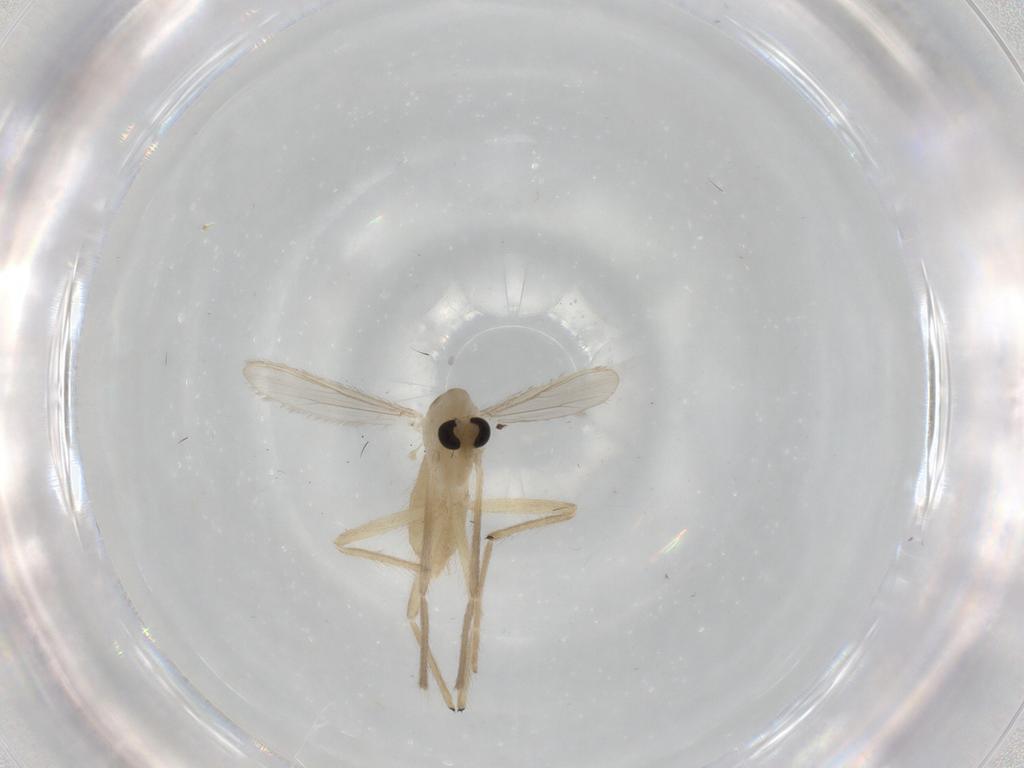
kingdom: Animalia
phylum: Arthropoda
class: Insecta
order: Diptera
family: Chironomidae
